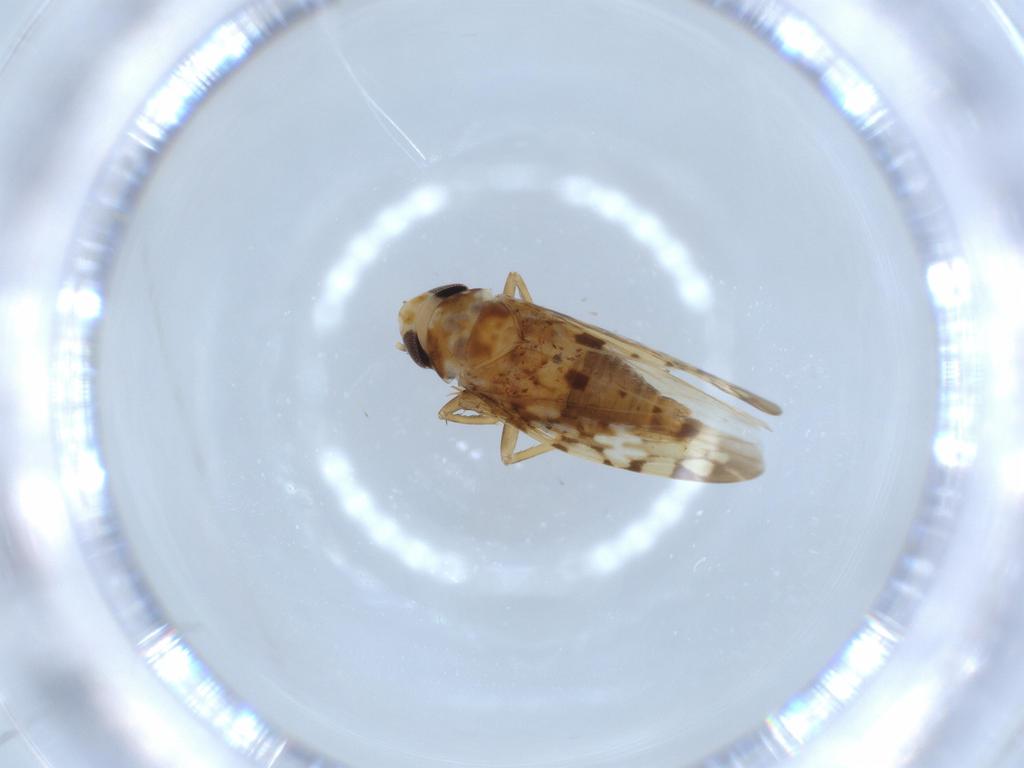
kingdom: Animalia
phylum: Arthropoda
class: Insecta
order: Hemiptera
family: Cicadellidae
